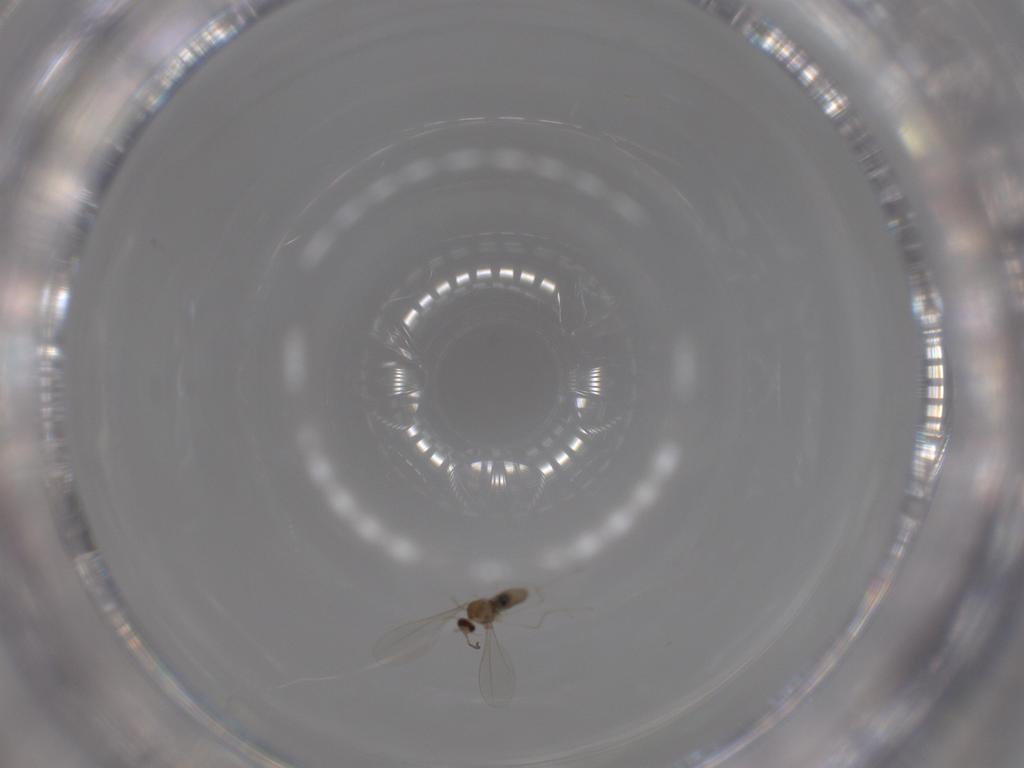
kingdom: Animalia
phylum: Arthropoda
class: Insecta
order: Diptera
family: Cecidomyiidae
